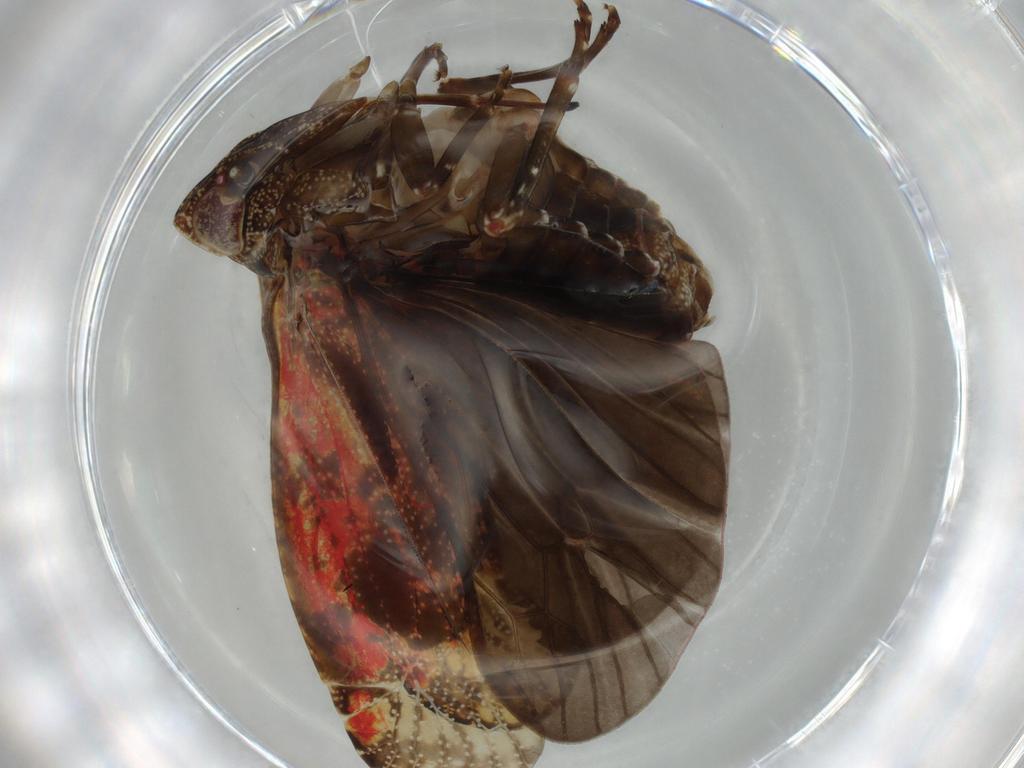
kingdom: Animalia
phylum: Arthropoda
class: Insecta
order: Hemiptera
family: Achilidae
